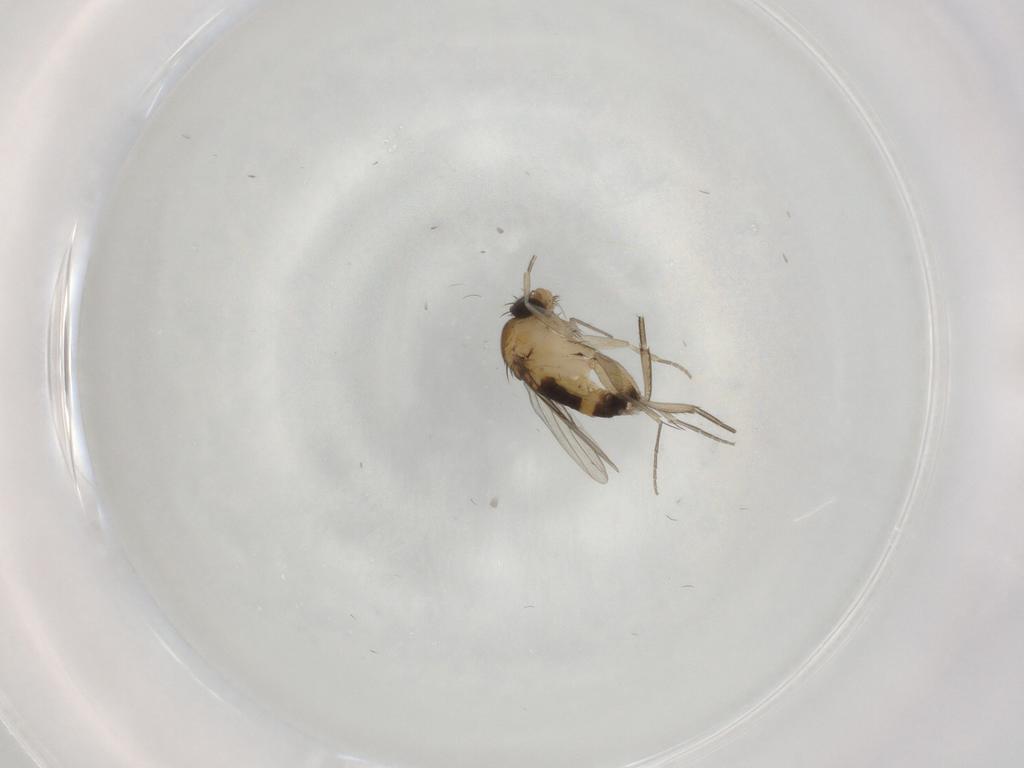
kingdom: Animalia
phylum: Arthropoda
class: Insecta
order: Diptera
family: Phoridae
